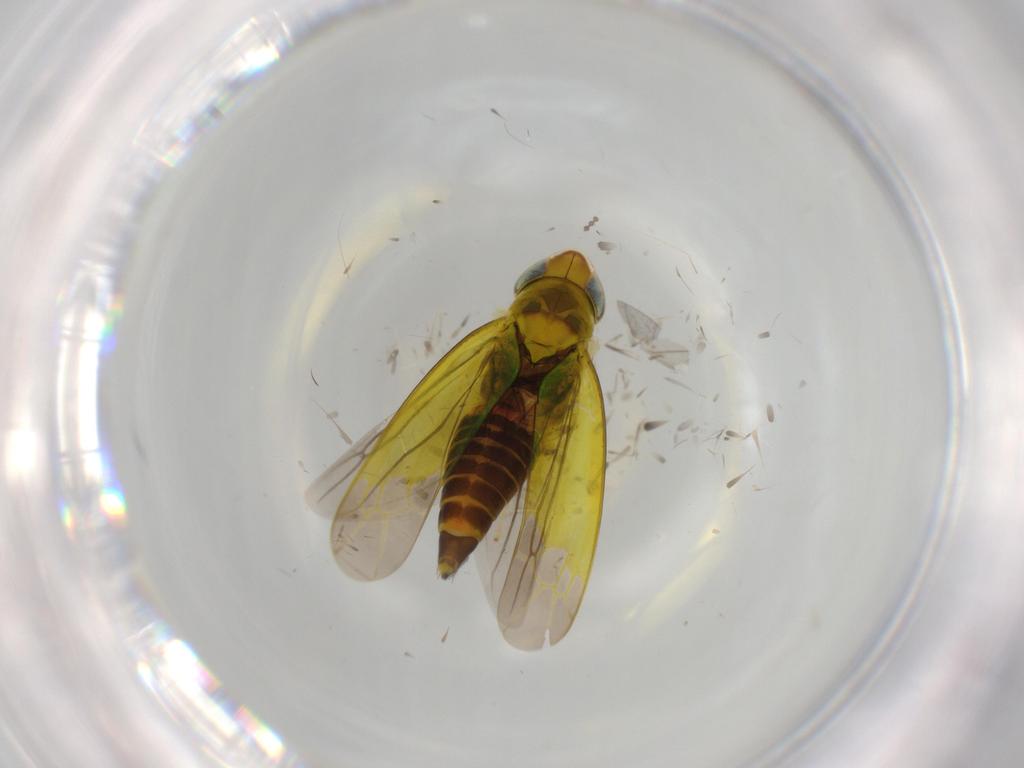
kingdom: Animalia
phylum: Arthropoda
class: Insecta
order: Hemiptera
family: Cicadellidae
